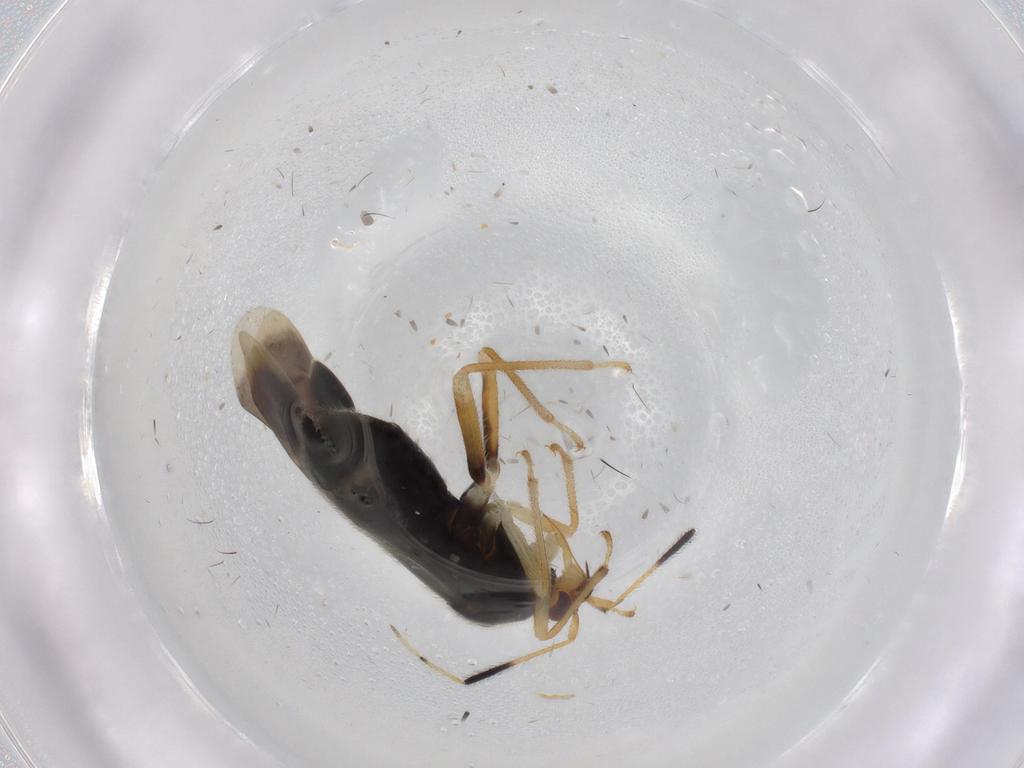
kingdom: Animalia
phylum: Arthropoda
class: Insecta
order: Hemiptera
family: Miridae
